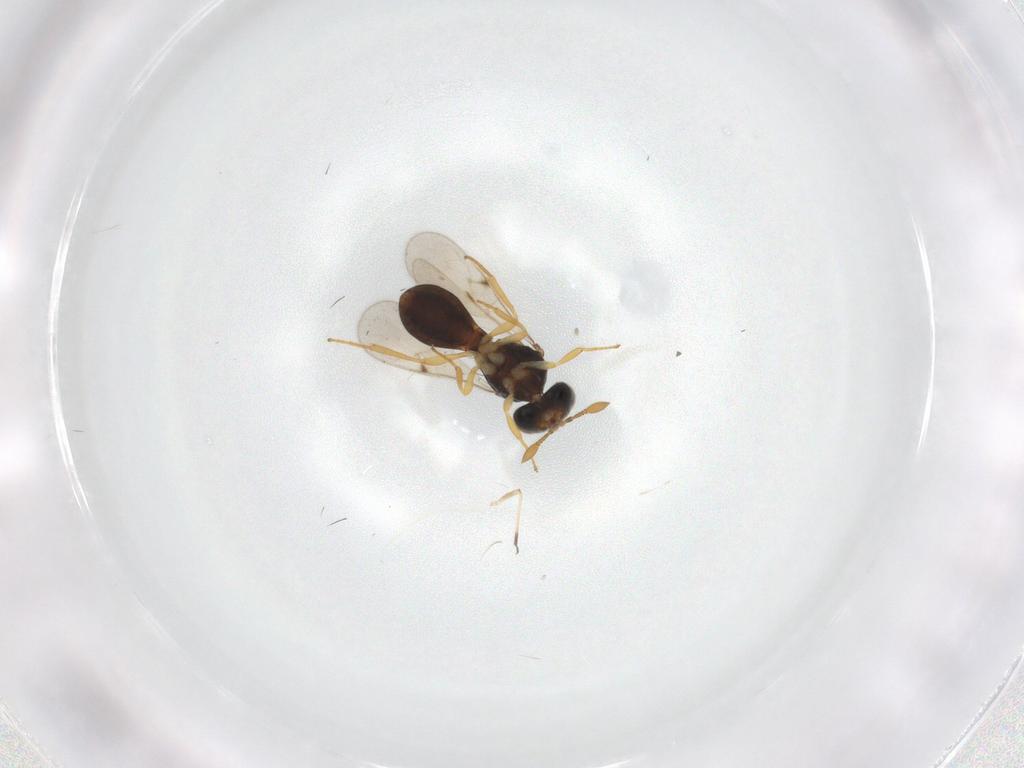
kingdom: Animalia
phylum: Arthropoda
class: Insecta
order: Hymenoptera
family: Scelionidae
